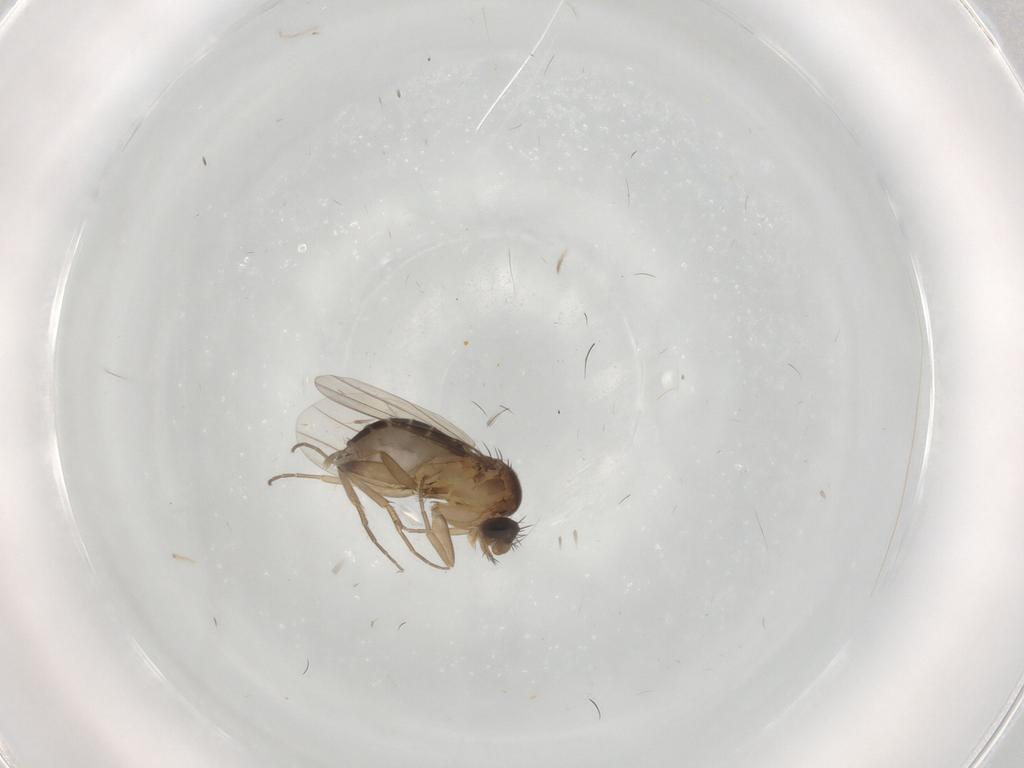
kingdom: Animalia
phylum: Arthropoda
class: Insecta
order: Diptera
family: Phoridae
